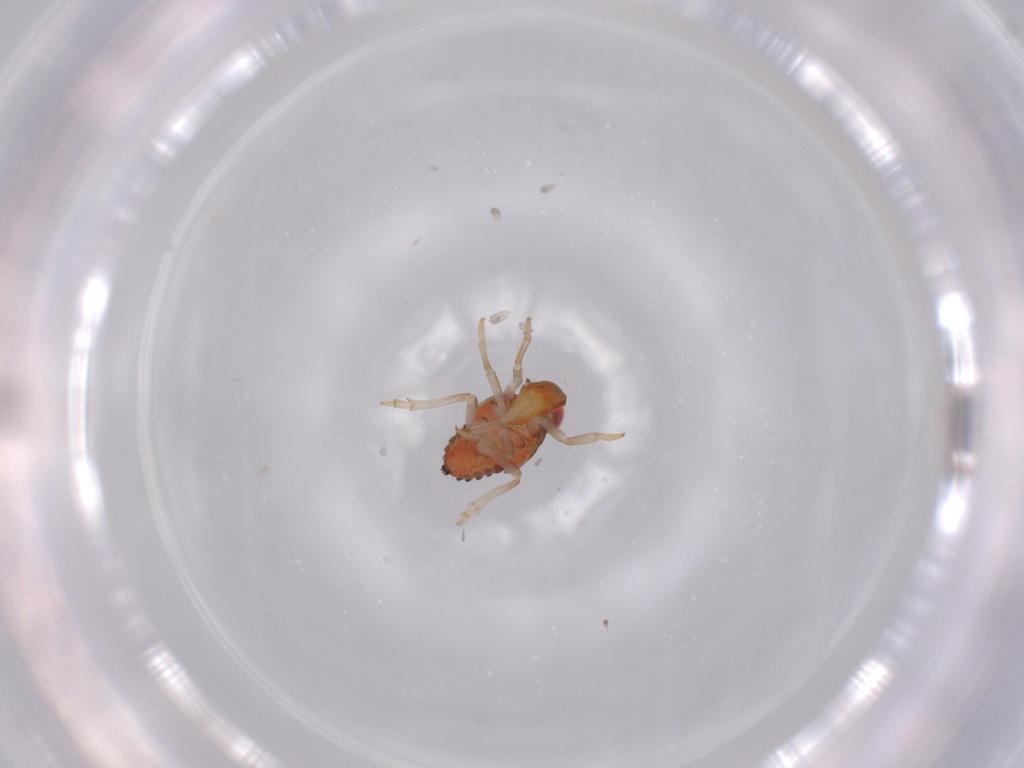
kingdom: Animalia
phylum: Arthropoda
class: Insecta
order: Hemiptera
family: Issidae
